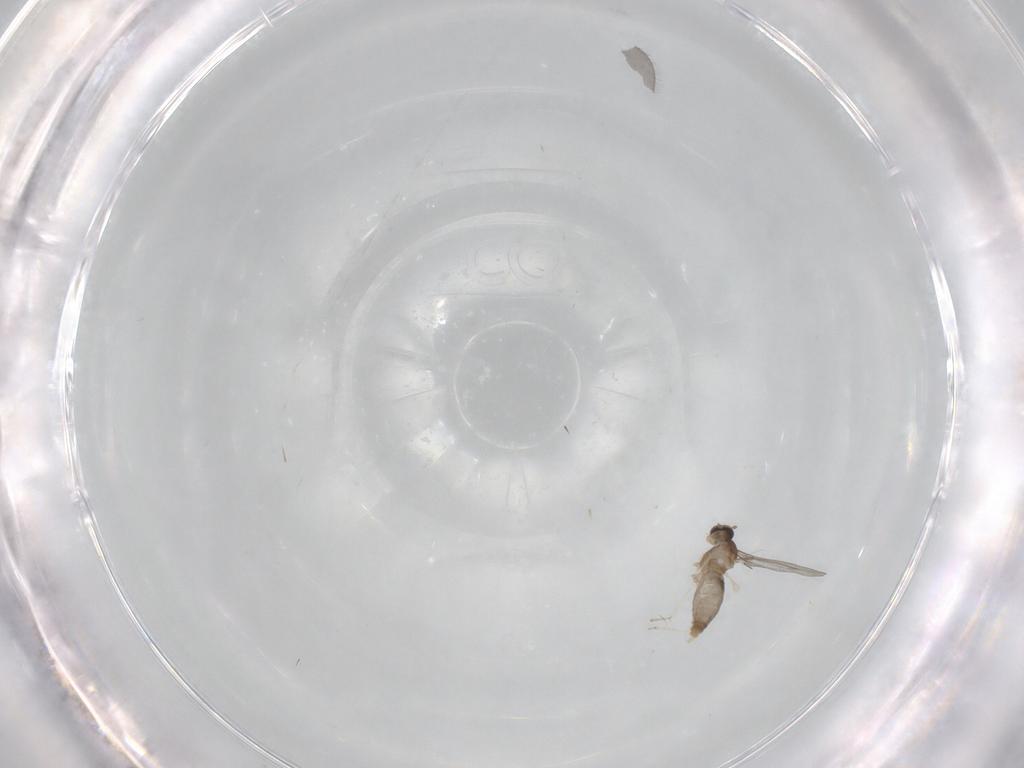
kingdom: Animalia
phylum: Arthropoda
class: Insecta
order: Diptera
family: Cecidomyiidae
